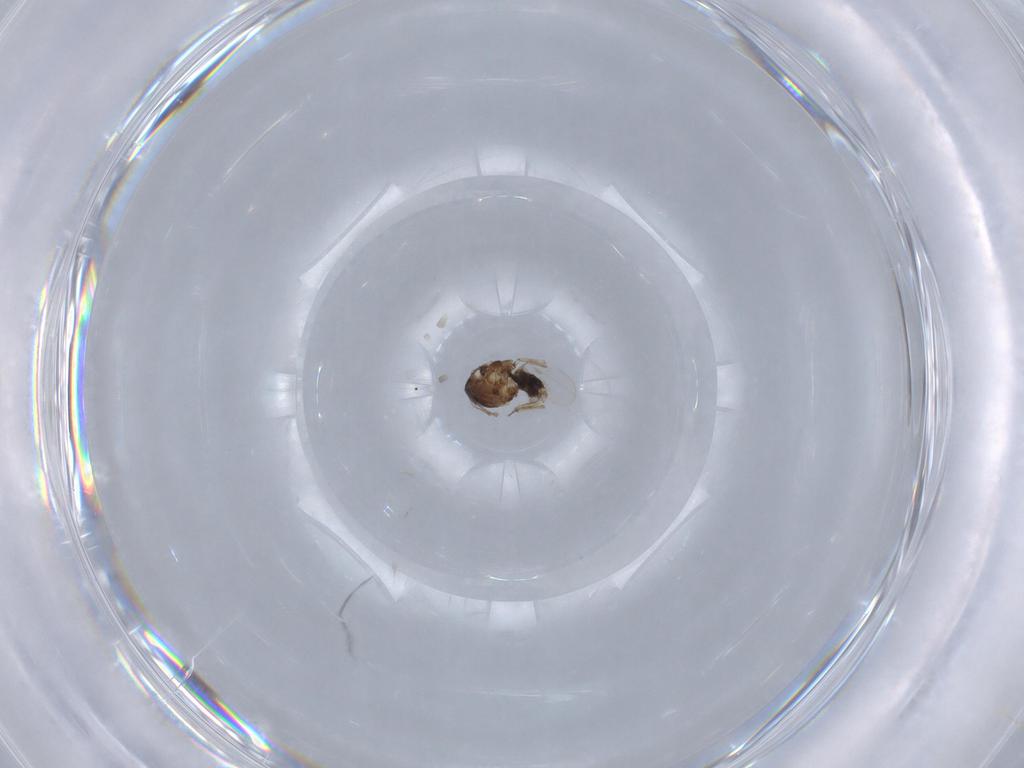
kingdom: Animalia
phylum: Arthropoda
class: Insecta
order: Diptera
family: Ceratopogonidae
